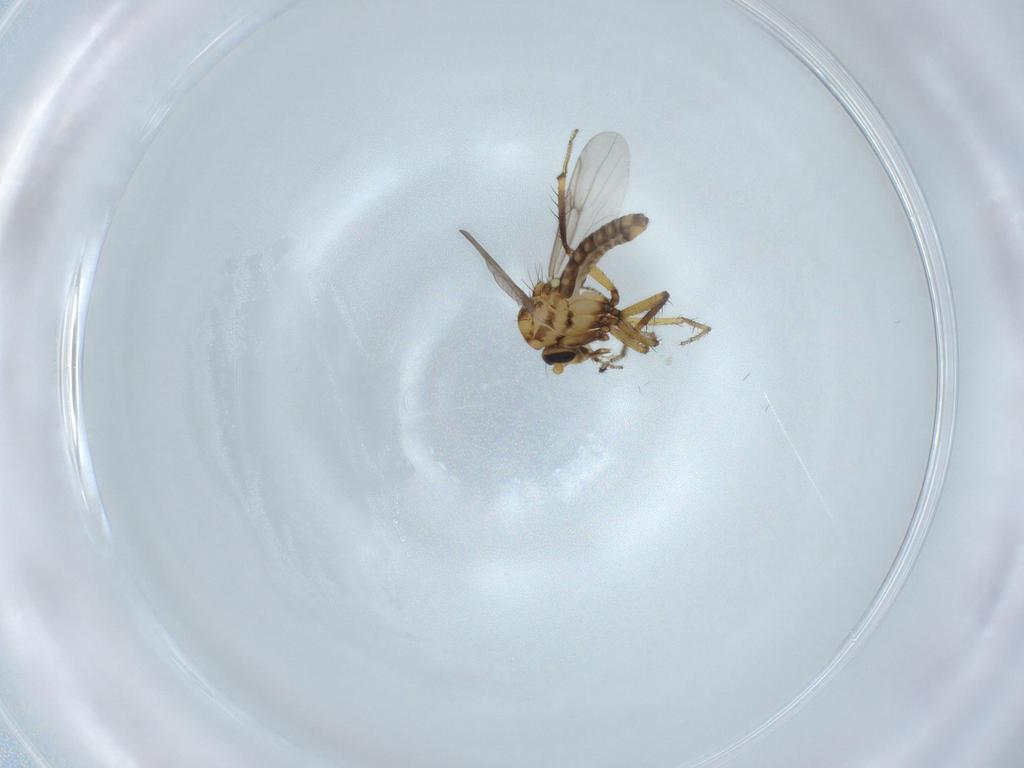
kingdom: Animalia
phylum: Arthropoda
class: Insecta
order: Diptera
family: Ceratopogonidae
